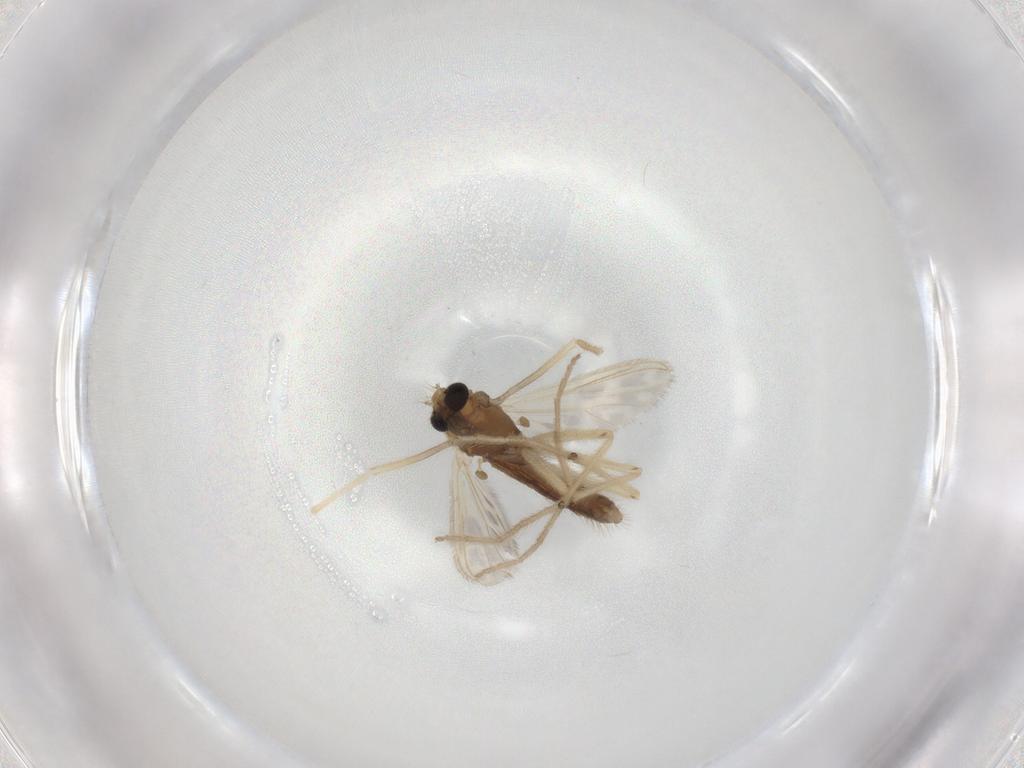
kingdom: Animalia
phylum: Arthropoda
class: Insecta
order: Diptera
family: Chironomidae
